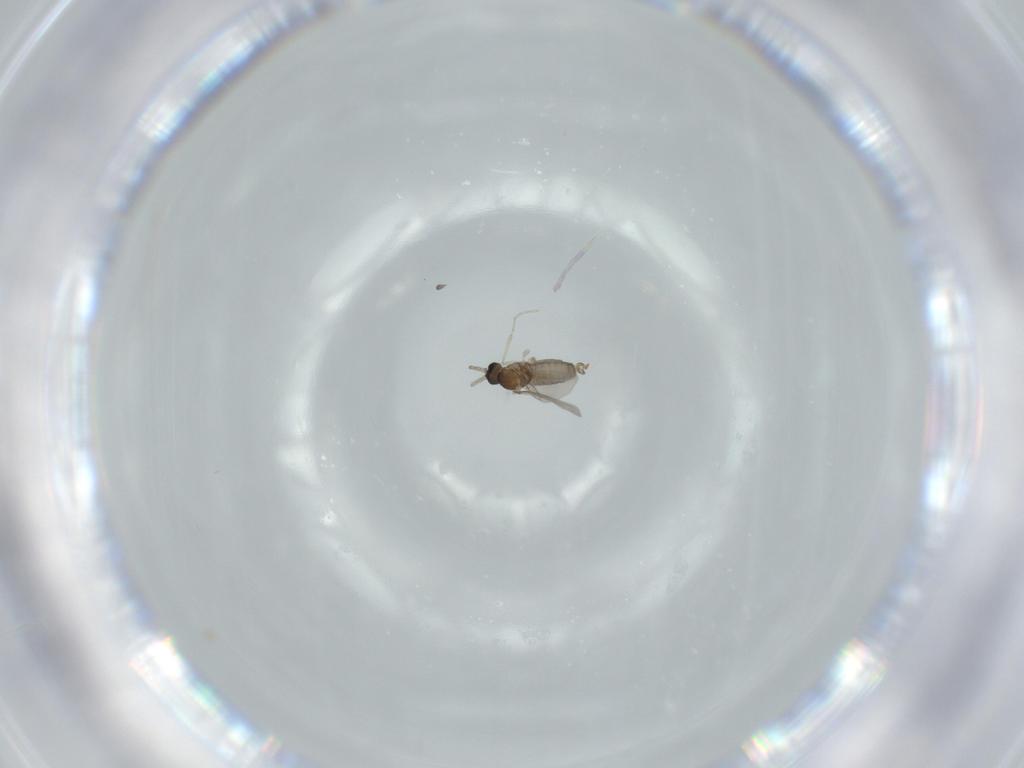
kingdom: Animalia
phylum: Arthropoda
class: Insecta
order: Diptera
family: Cecidomyiidae
